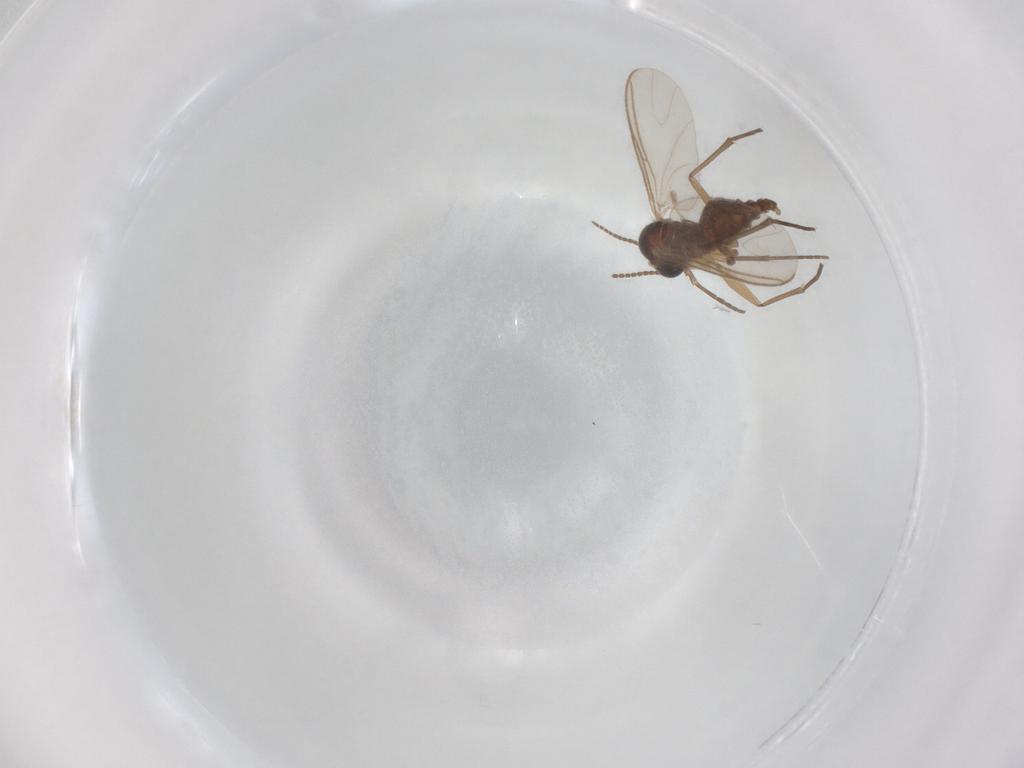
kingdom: Animalia
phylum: Arthropoda
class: Insecta
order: Diptera
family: Sciaridae
